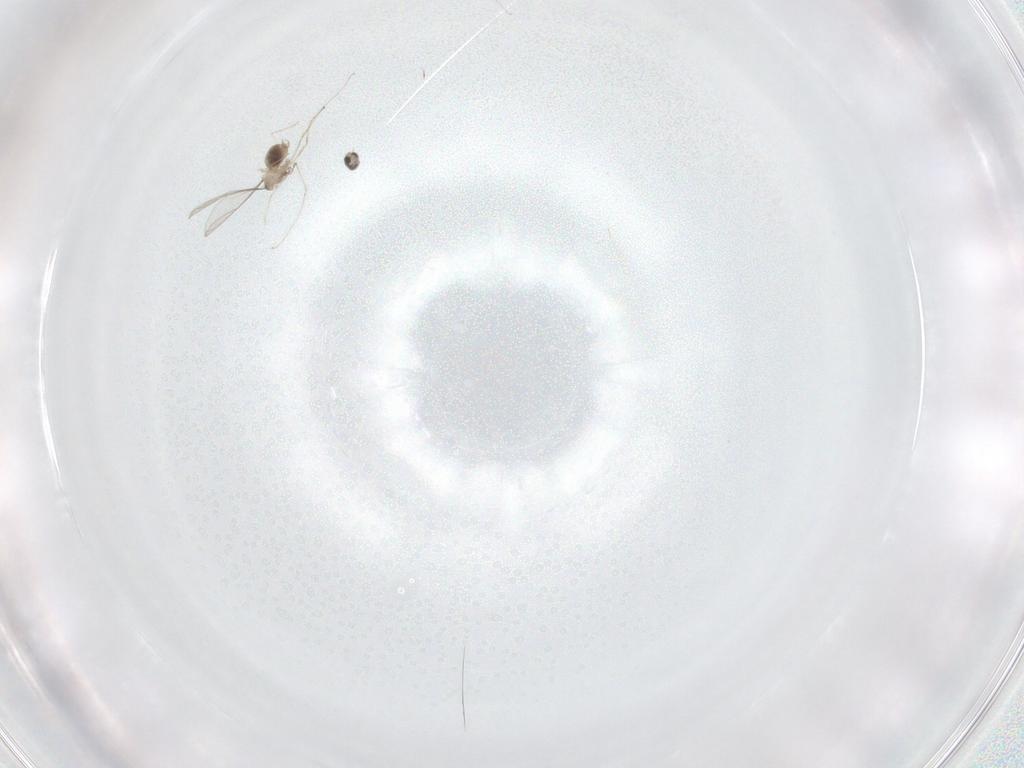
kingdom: Animalia
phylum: Arthropoda
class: Insecta
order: Diptera
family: Cecidomyiidae
